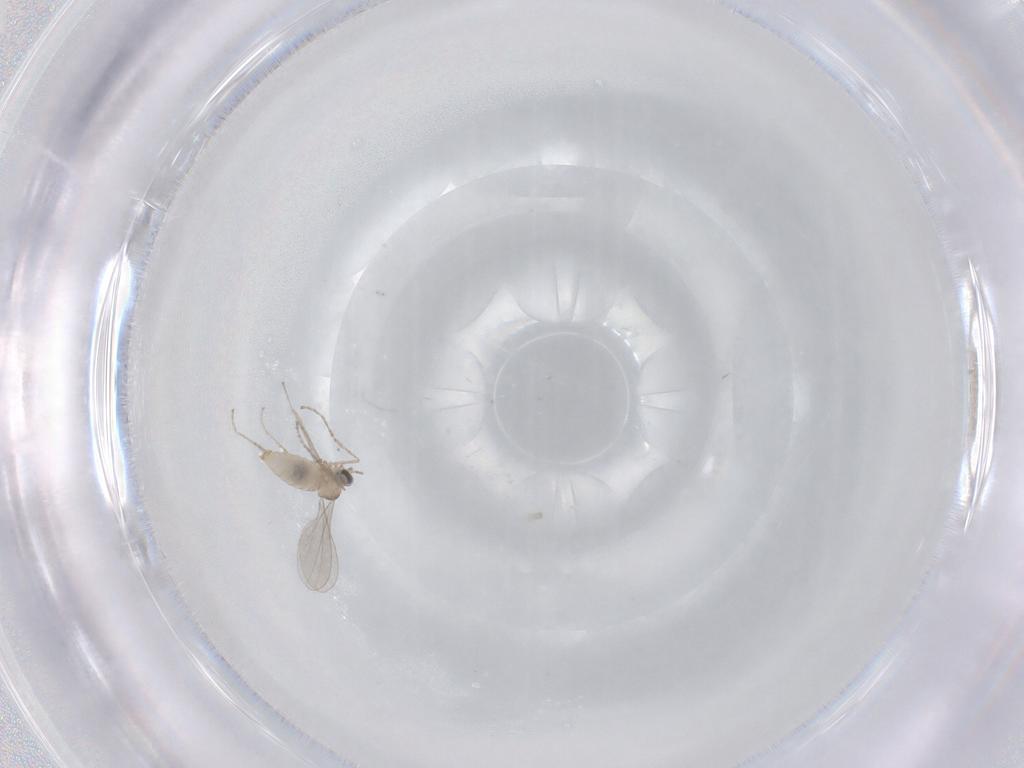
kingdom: Animalia
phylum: Arthropoda
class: Insecta
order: Diptera
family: Cecidomyiidae
